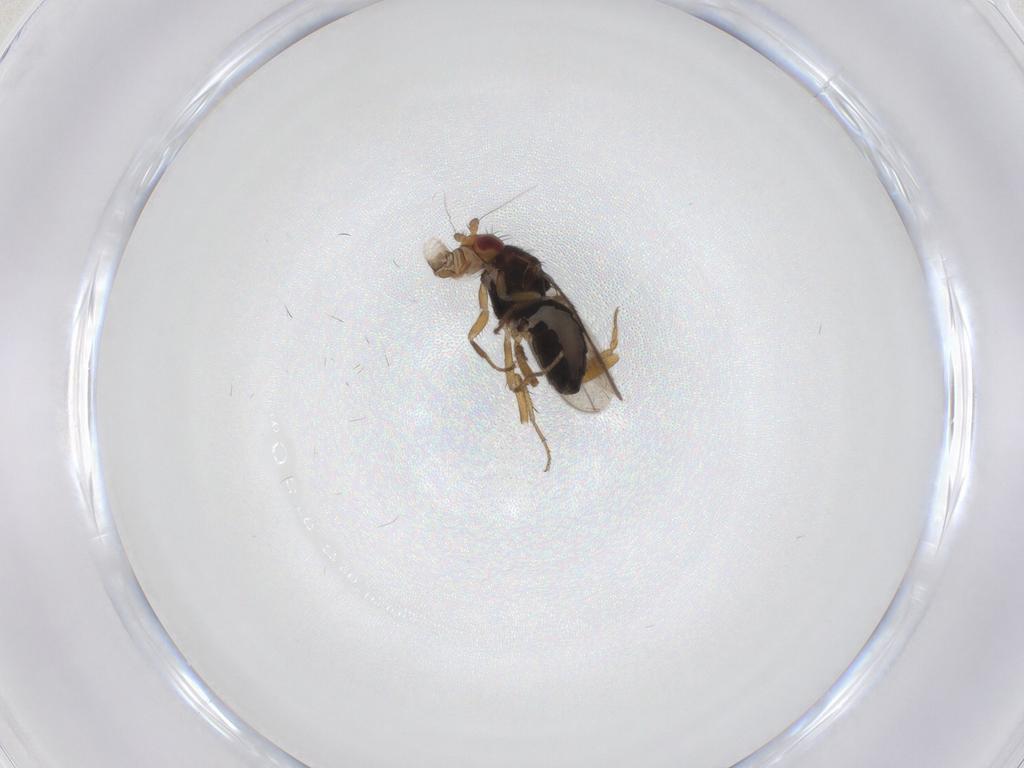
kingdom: Animalia
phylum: Arthropoda
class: Insecta
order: Diptera
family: Sphaeroceridae
